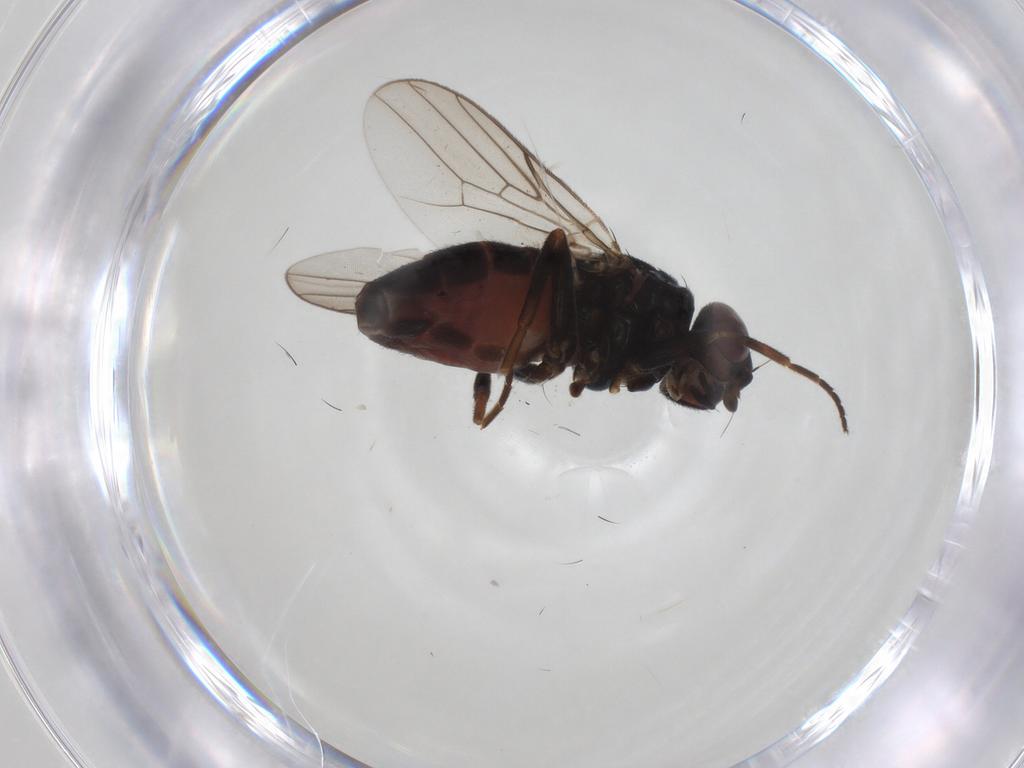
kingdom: Animalia
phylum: Arthropoda
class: Insecta
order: Diptera
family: Chloropidae
